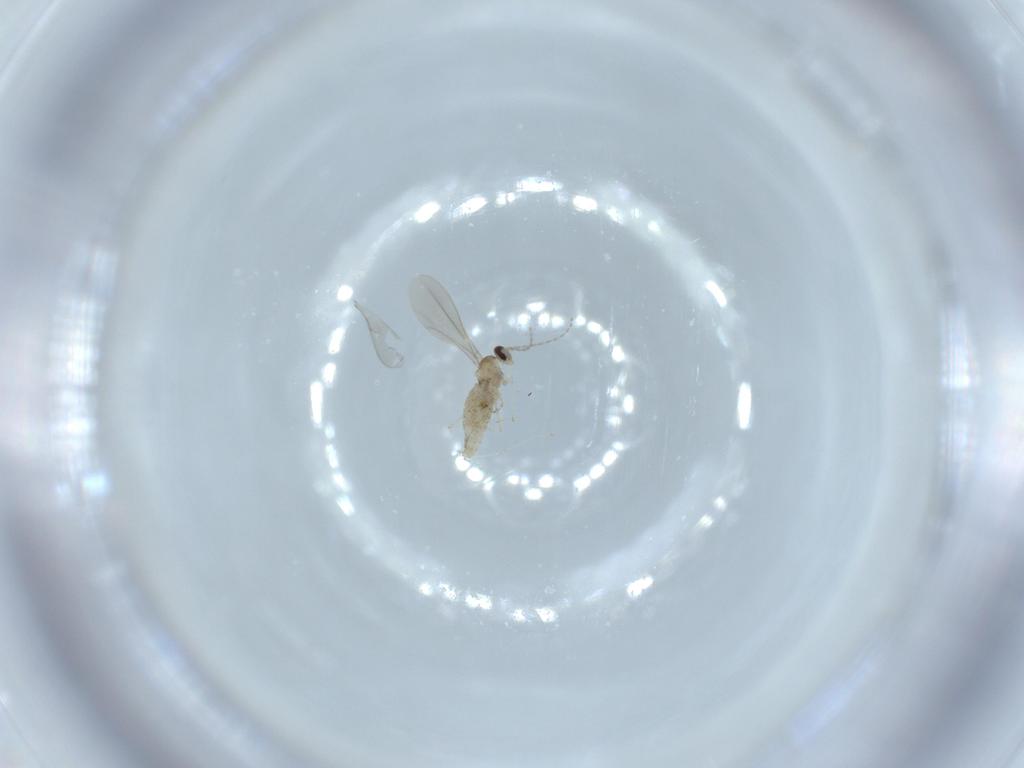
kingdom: Animalia
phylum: Arthropoda
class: Insecta
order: Diptera
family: Cecidomyiidae
